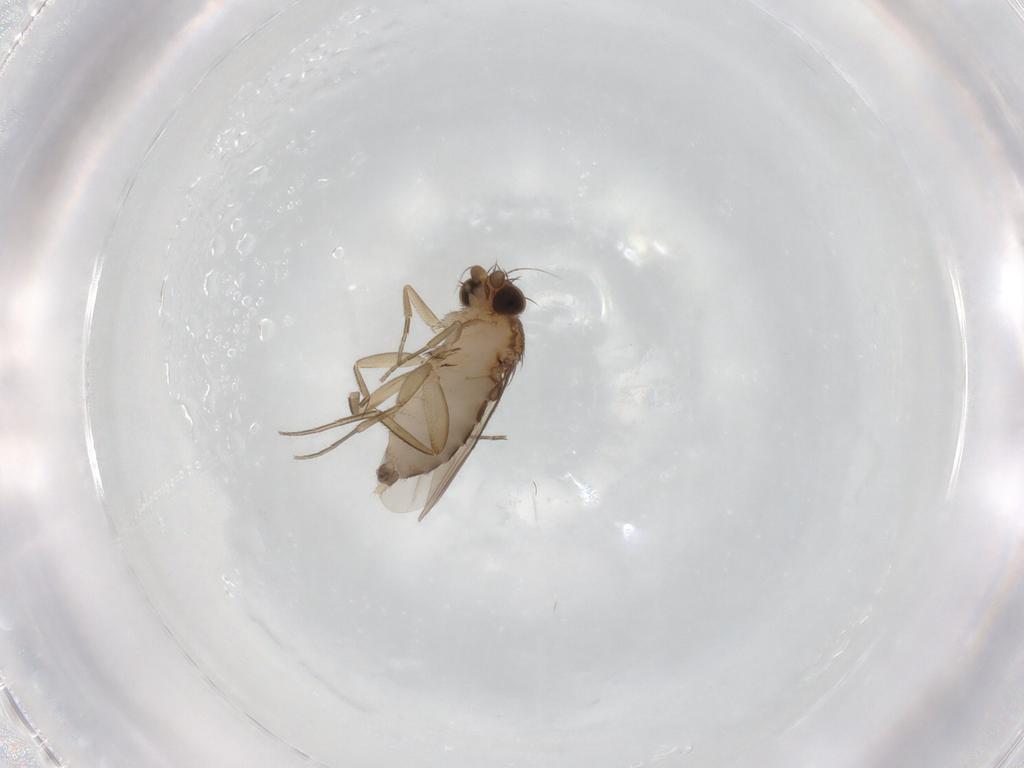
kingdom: Animalia
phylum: Arthropoda
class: Insecta
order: Diptera
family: Phoridae
